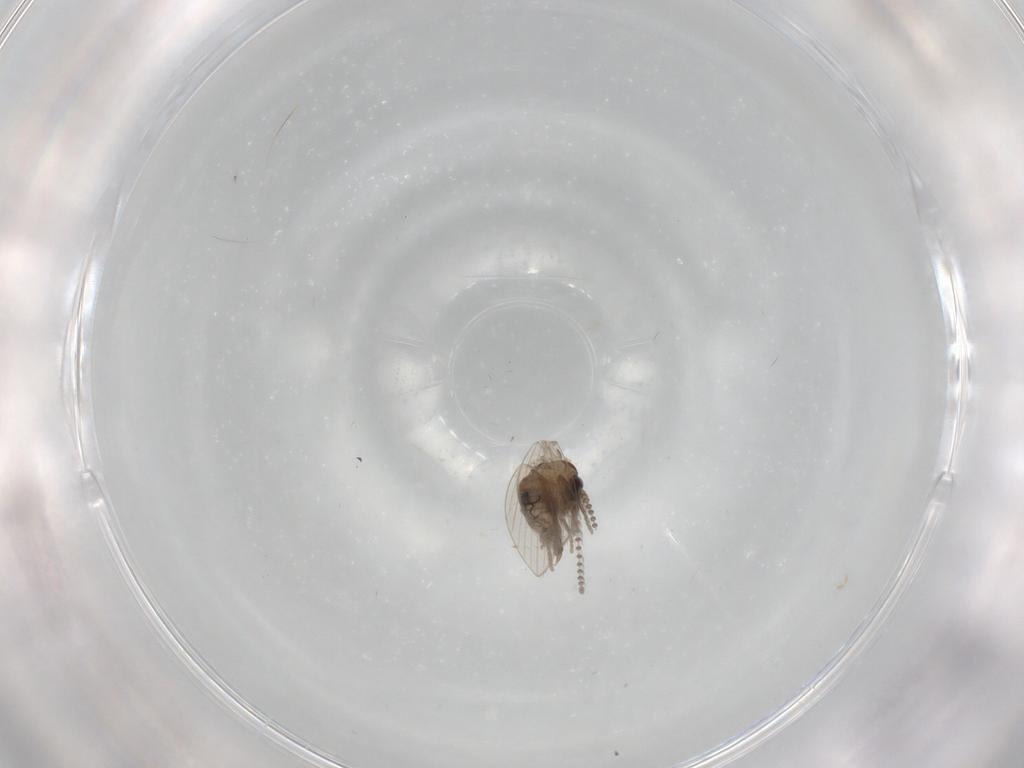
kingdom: Animalia
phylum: Arthropoda
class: Insecta
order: Diptera
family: Psychodidae
